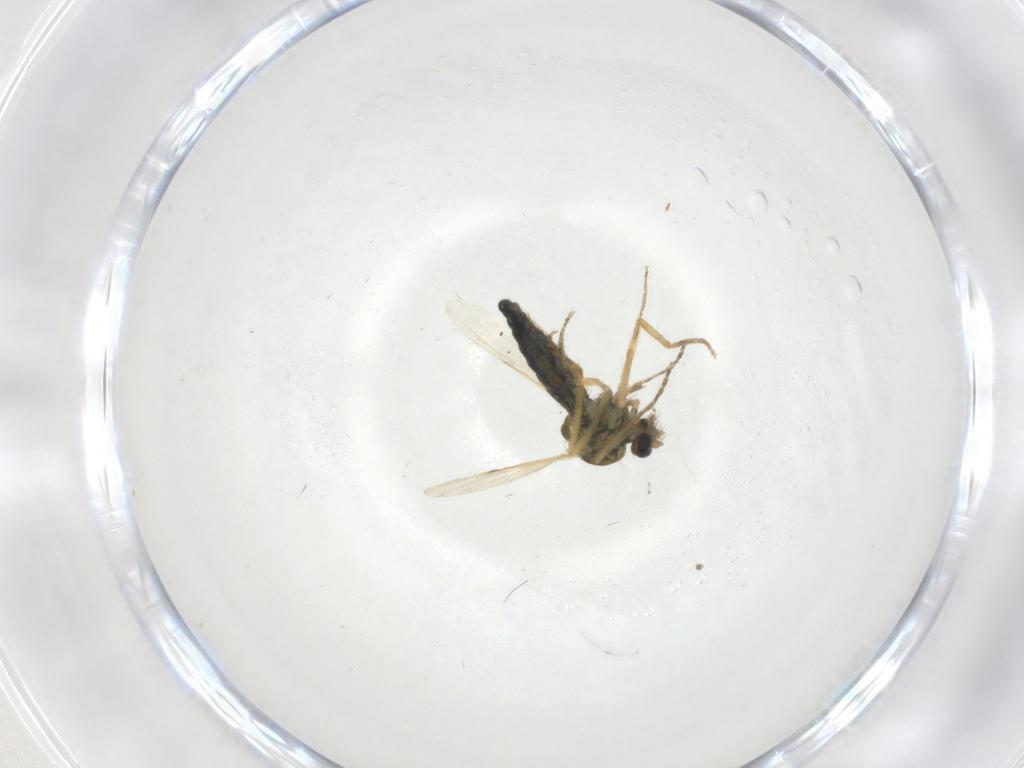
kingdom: Animalia
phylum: Arthropoda
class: Insecta
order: Diptera
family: Ceratopogonidae
